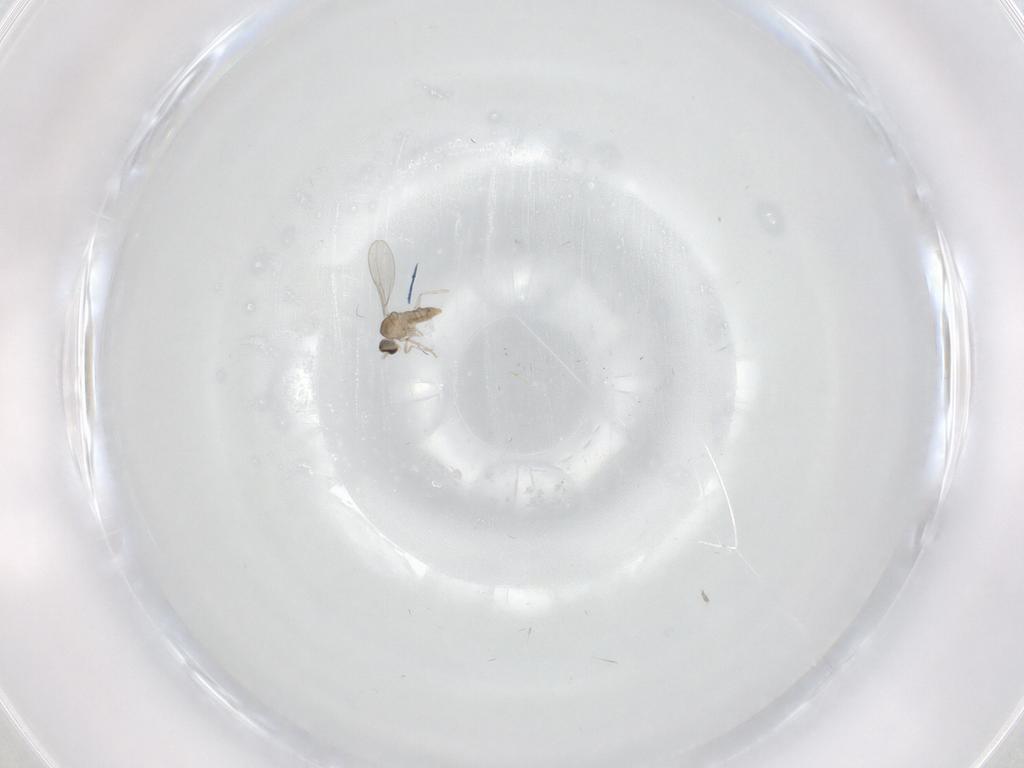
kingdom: Animalia
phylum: Arthropoda
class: Insecta
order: Diptera
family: Cecidomyiidae
